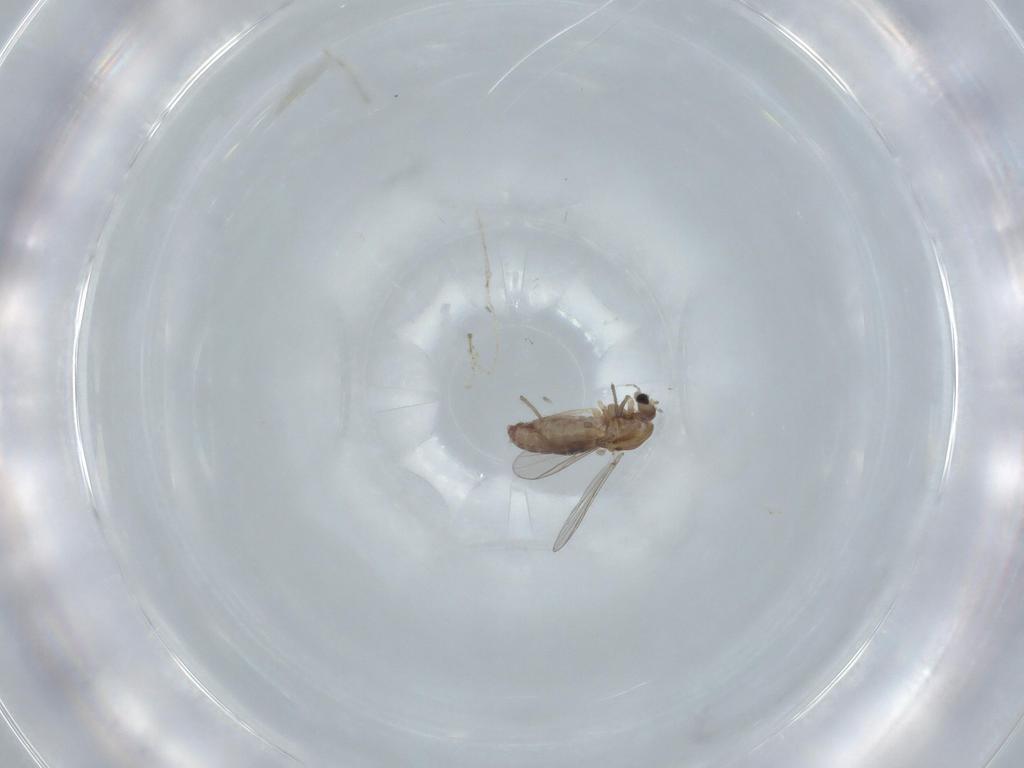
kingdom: Animalia
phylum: Arthropoda
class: Insecta
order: Diptera
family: Chironomidae
